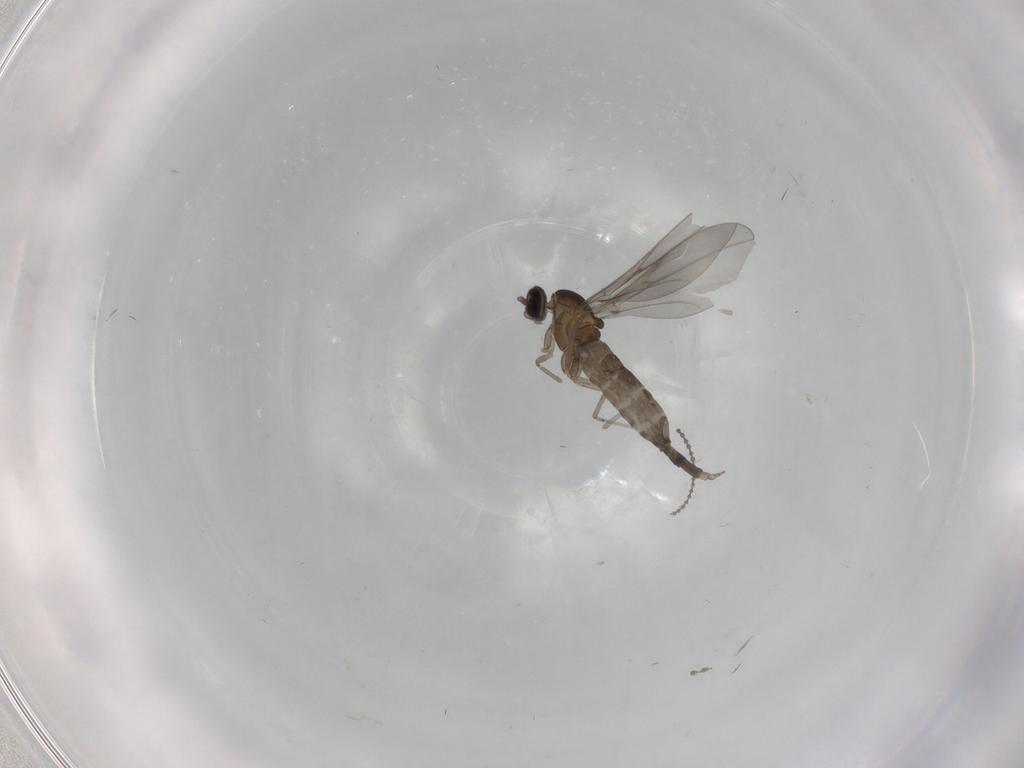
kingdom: Animalia
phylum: Arthropoda
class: Insecta
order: Diptera
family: Cecidomyiidae
